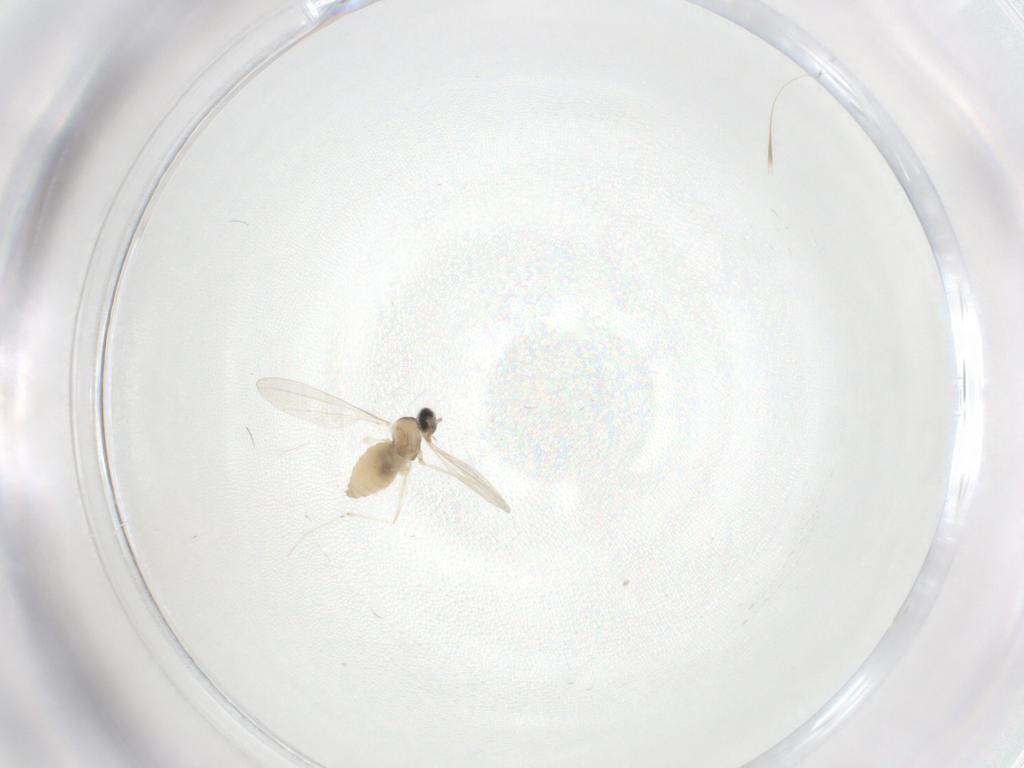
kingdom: Animalia
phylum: Arthropoda
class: Insecta
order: Diptera
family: Cecidomyiidae
